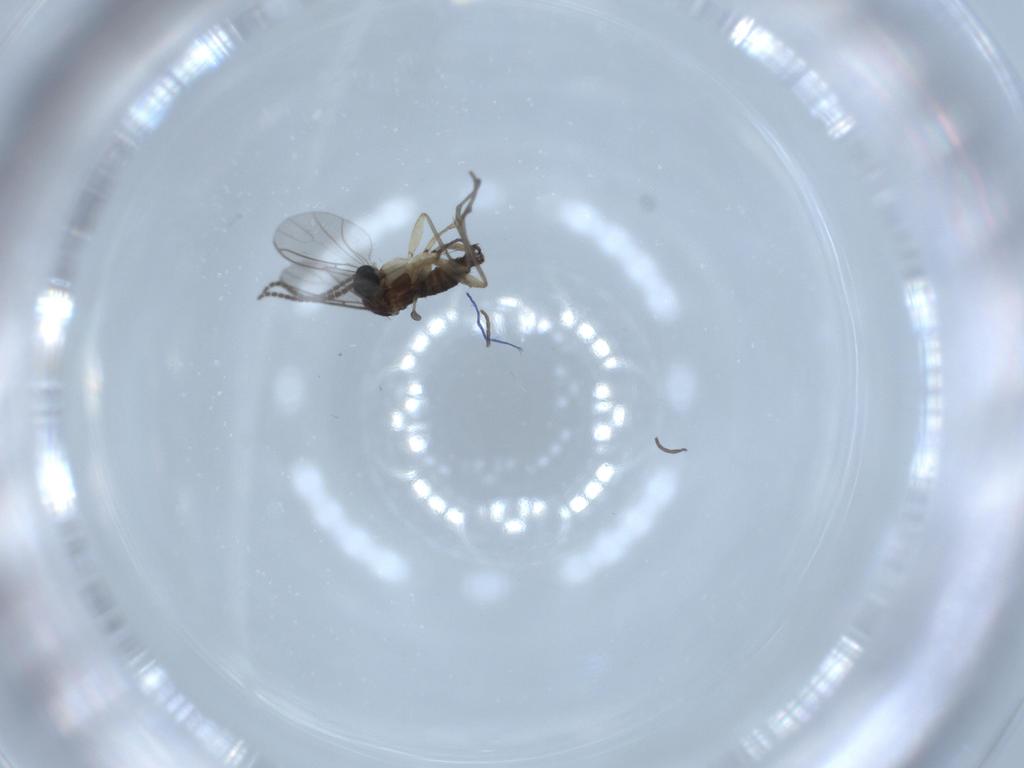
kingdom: Animalia
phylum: Arthropoda
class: Insecta
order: Diptera
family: Sciaridae
